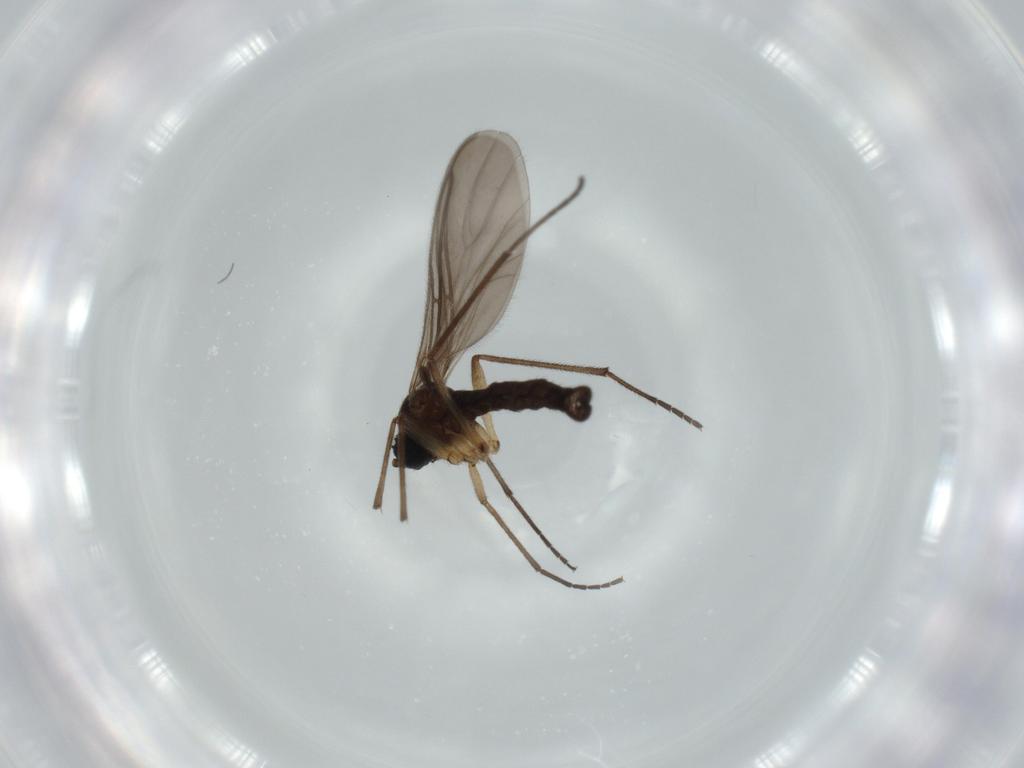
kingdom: Animalia
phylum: Arthropoda
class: Insecta
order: Diptera
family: Sciaridae
